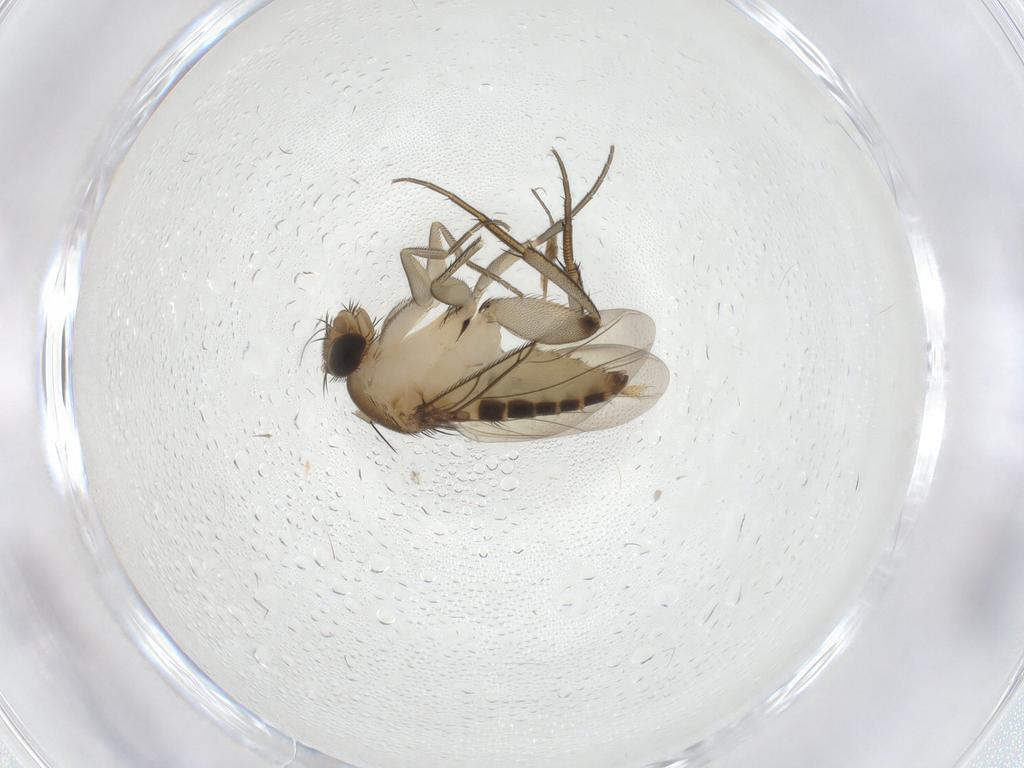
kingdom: Animalia
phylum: Arthropoda
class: Insecta
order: Diptera
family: Phoridae
